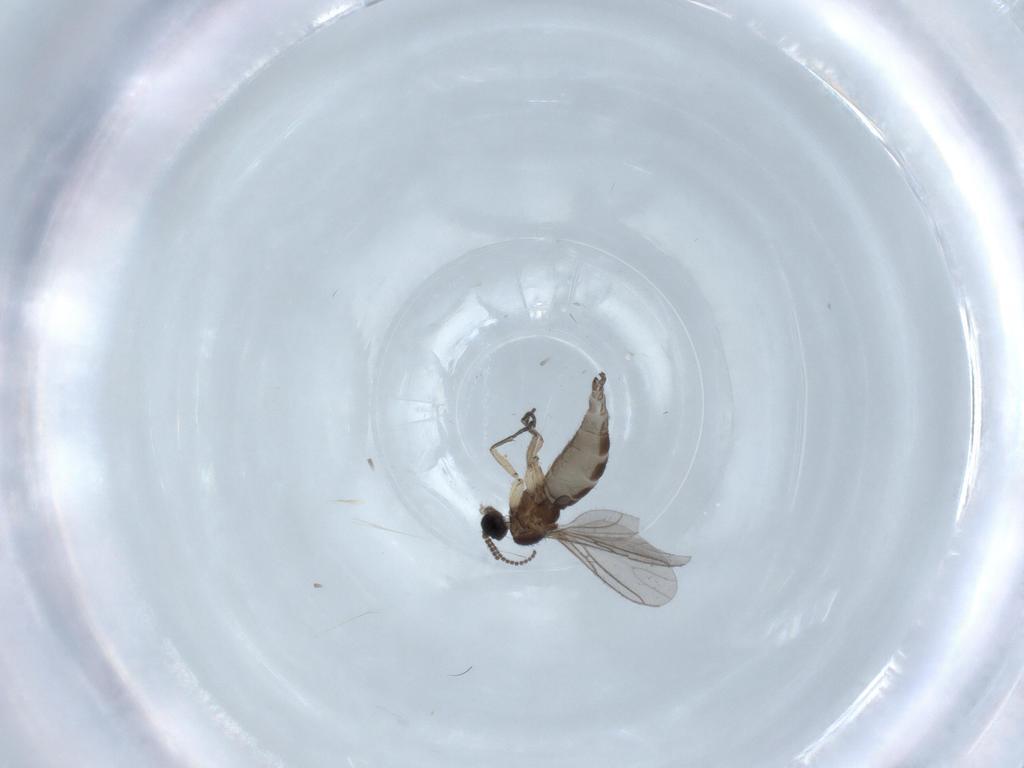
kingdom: Animalia
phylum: Arthropoda
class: Insecta
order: Diptera
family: Limoniidae
